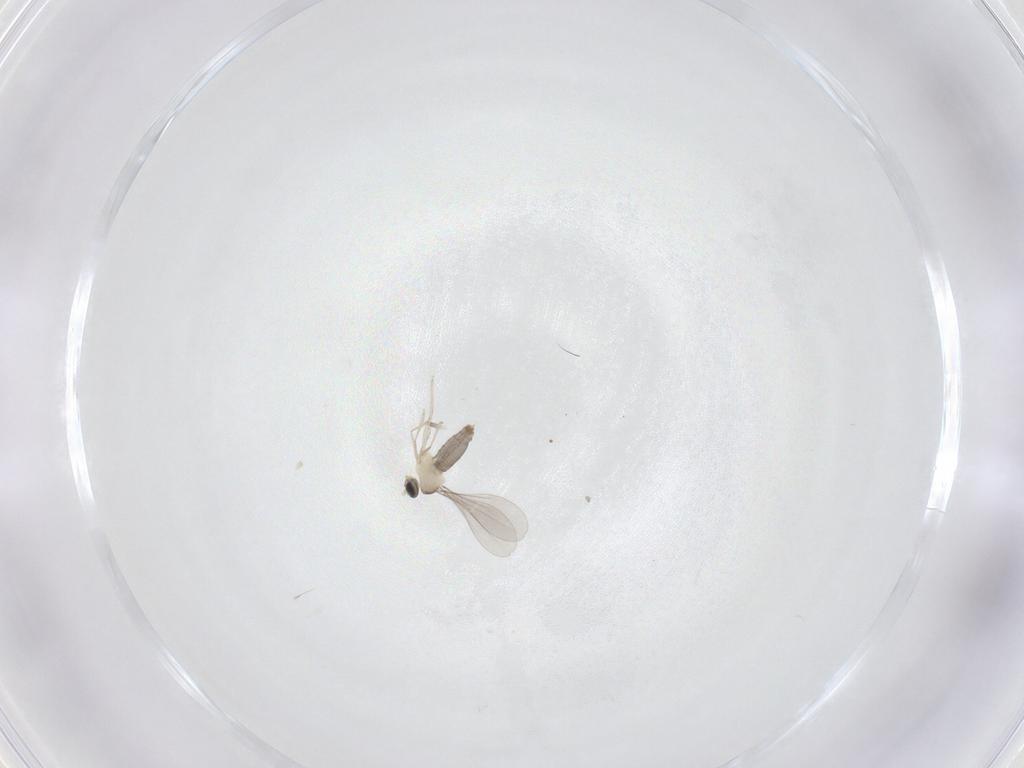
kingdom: Animalia
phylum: Arthropoda
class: Insecta
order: Diptera
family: Cecidomyiidae
